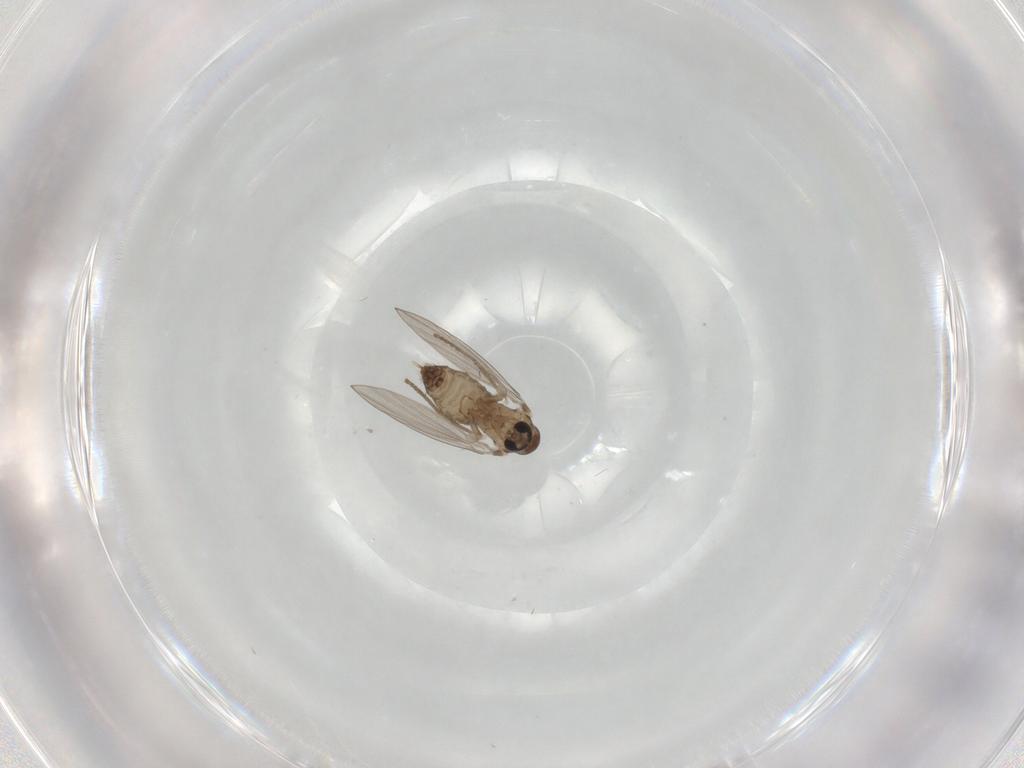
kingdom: Animalia
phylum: Arthropoda
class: Insecta
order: Diptera
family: Psychodidae
